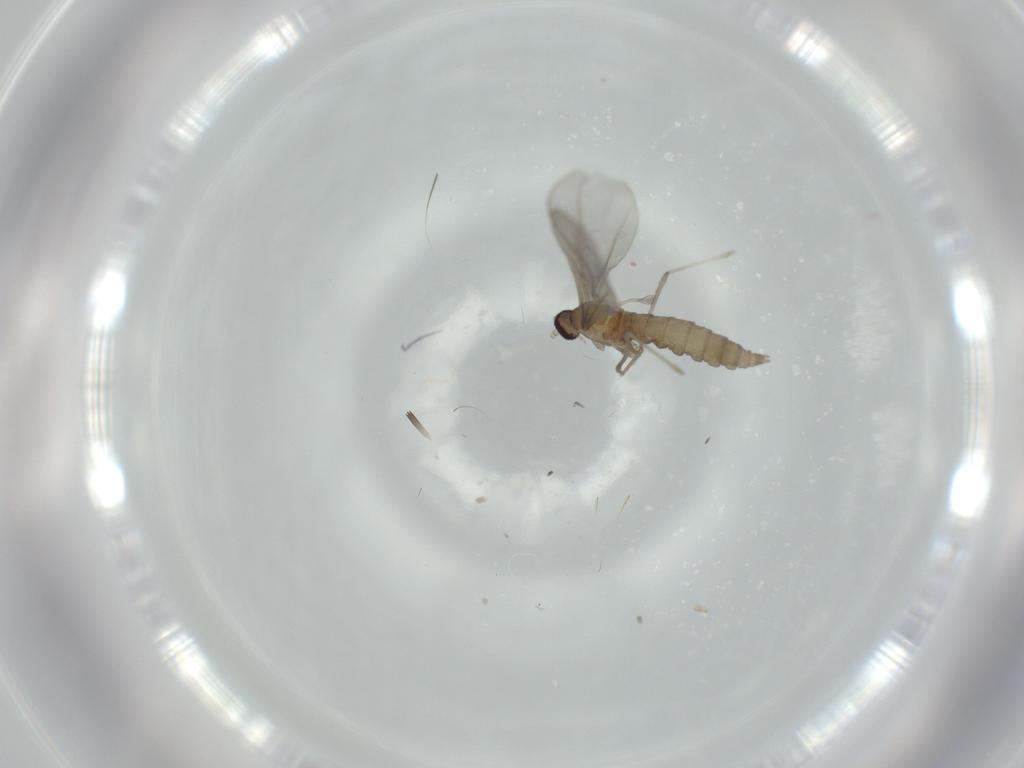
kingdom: Animalia
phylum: Arthropoda
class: Insecta
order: Diptera
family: Cecidomyiidae
